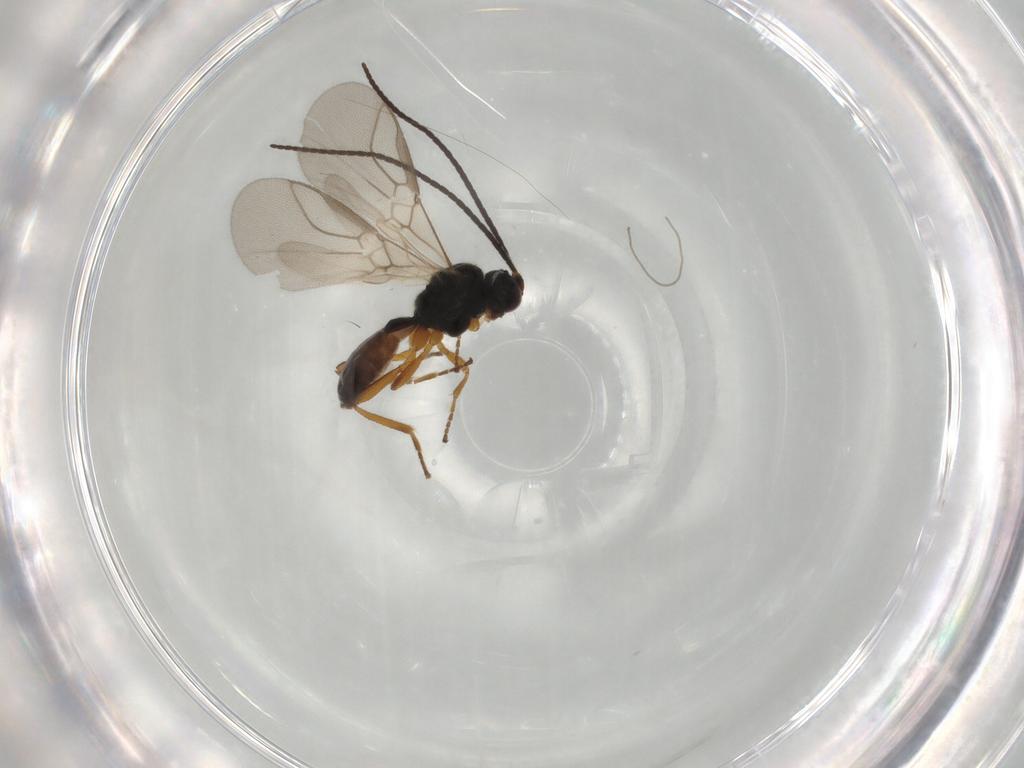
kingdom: Animalia
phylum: Arthropoda
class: Insecta
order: Hymenoptera
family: Braconidae
